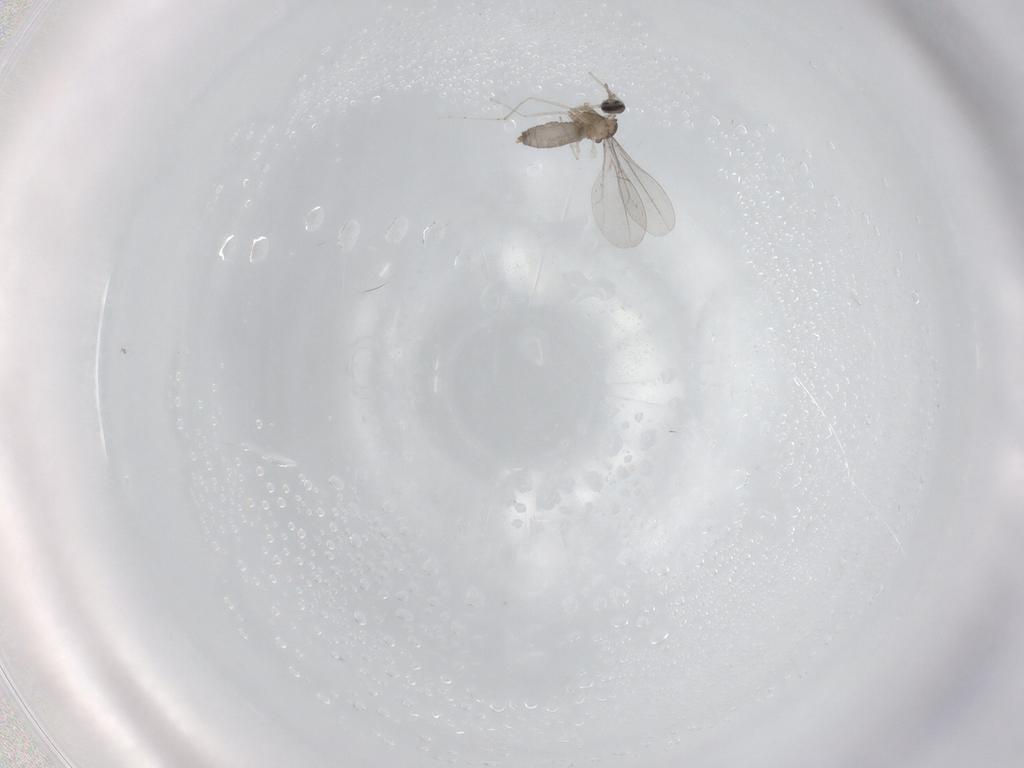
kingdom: Animalia
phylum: Arthropoda
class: Insecta
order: Diptera
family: Cecidomyiidae
